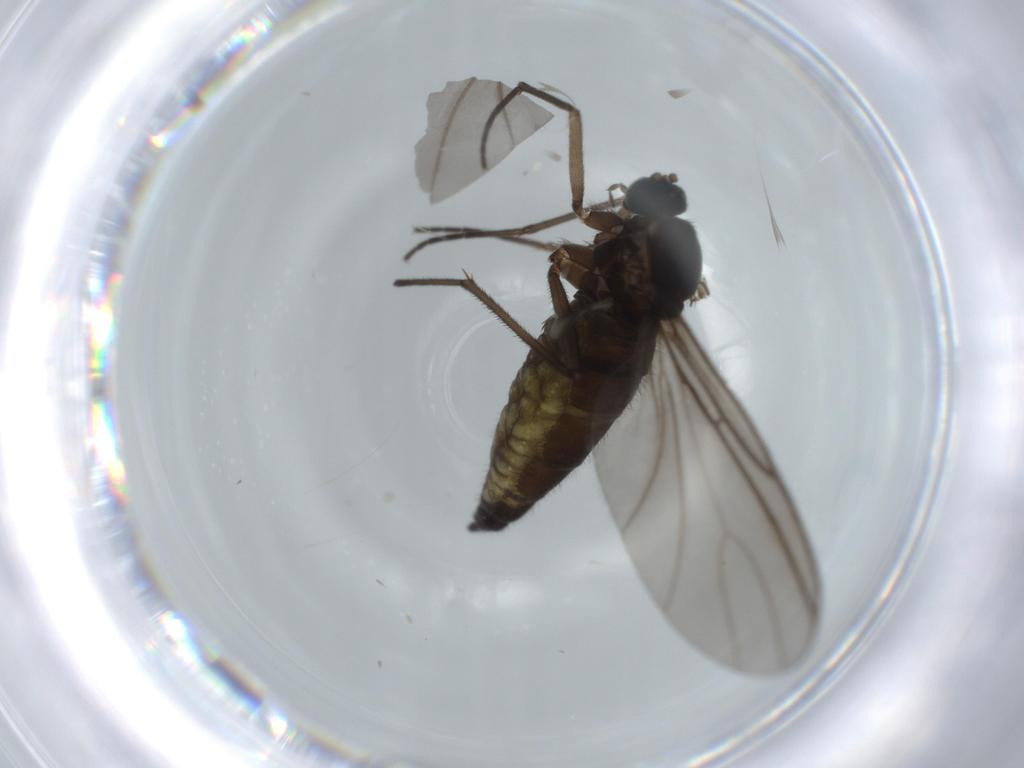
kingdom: Animalia
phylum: Arthropoda
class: Insecta
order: Diptera
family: Sciaridae
